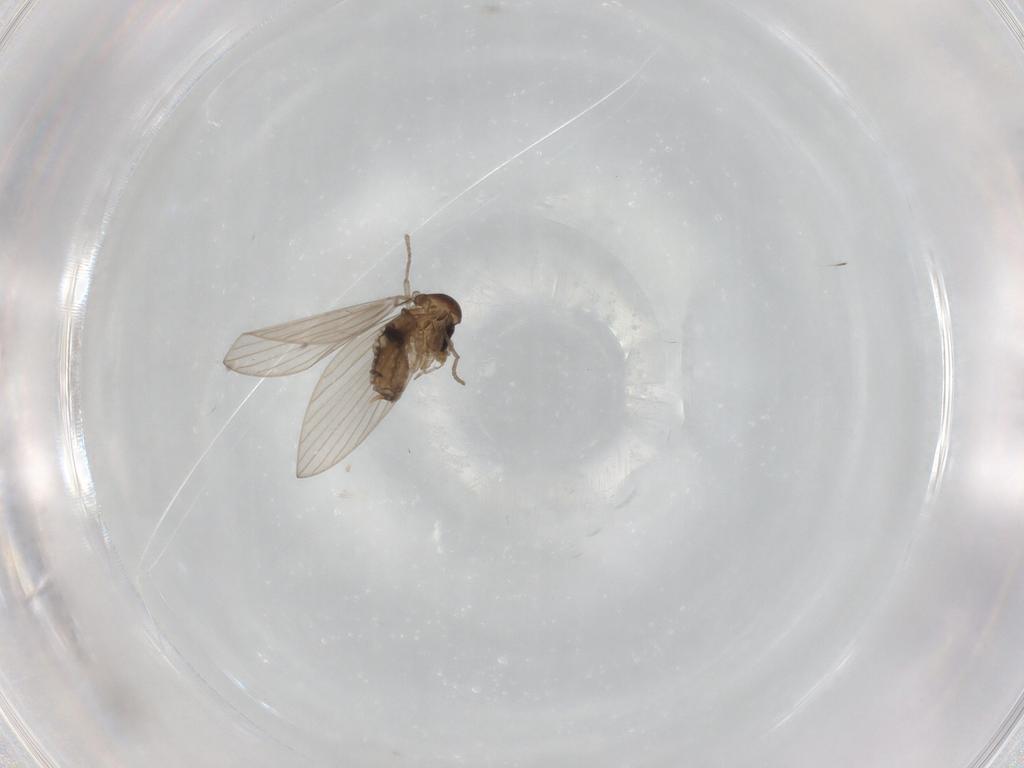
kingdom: Animalia
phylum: Arthropoda
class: Insecta
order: Diptera
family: Psychodidae
